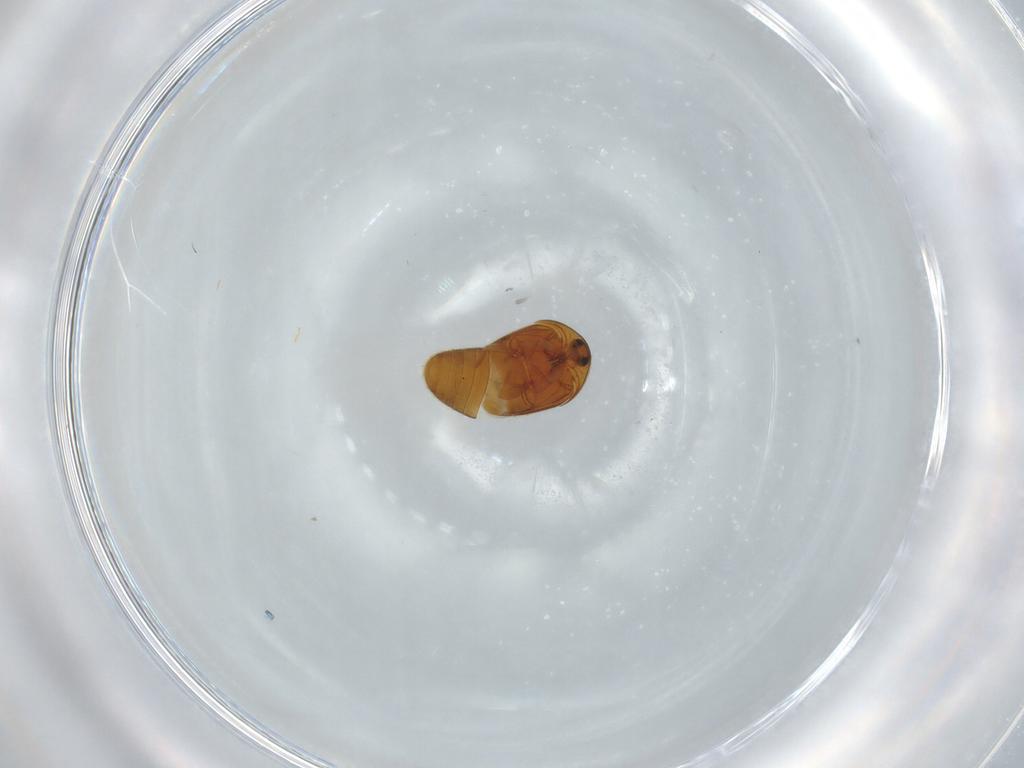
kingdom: Animalia
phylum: Arthropoda
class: Insecta
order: Coleoptera
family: Corylophidae
